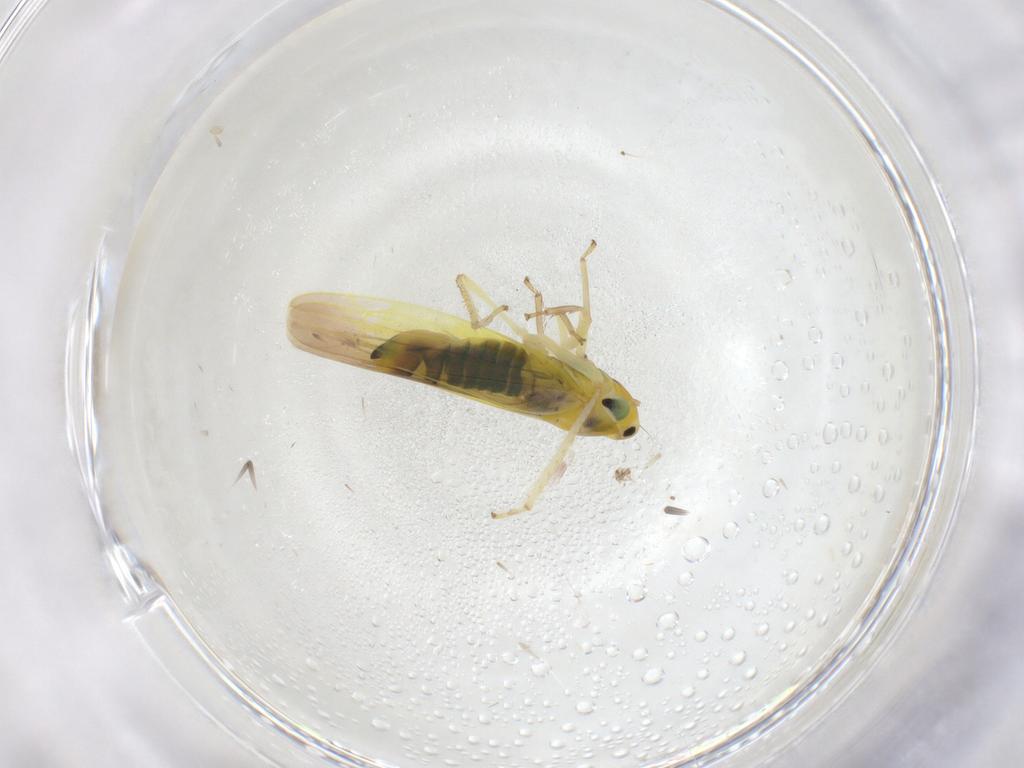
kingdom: Animalia
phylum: Arthropoda
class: Insecta
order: Hemiptera
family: Cicadellidae
